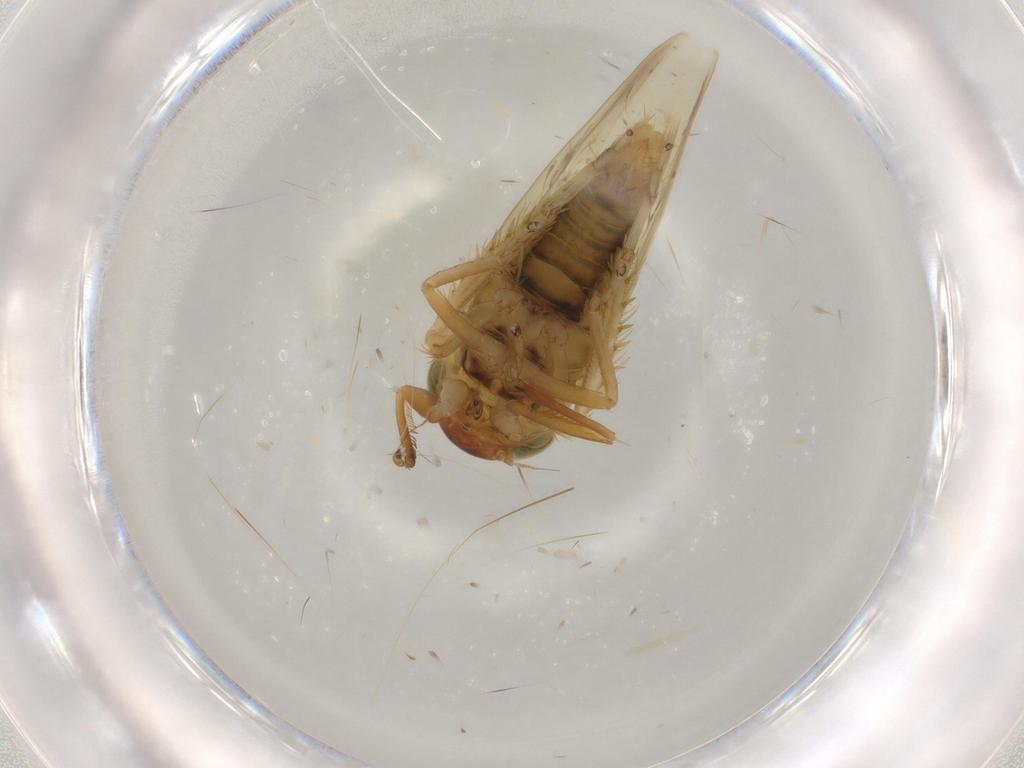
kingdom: Animalia
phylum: Arthropoda
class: Insecta
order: Hemiptera
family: Cicadellidae
